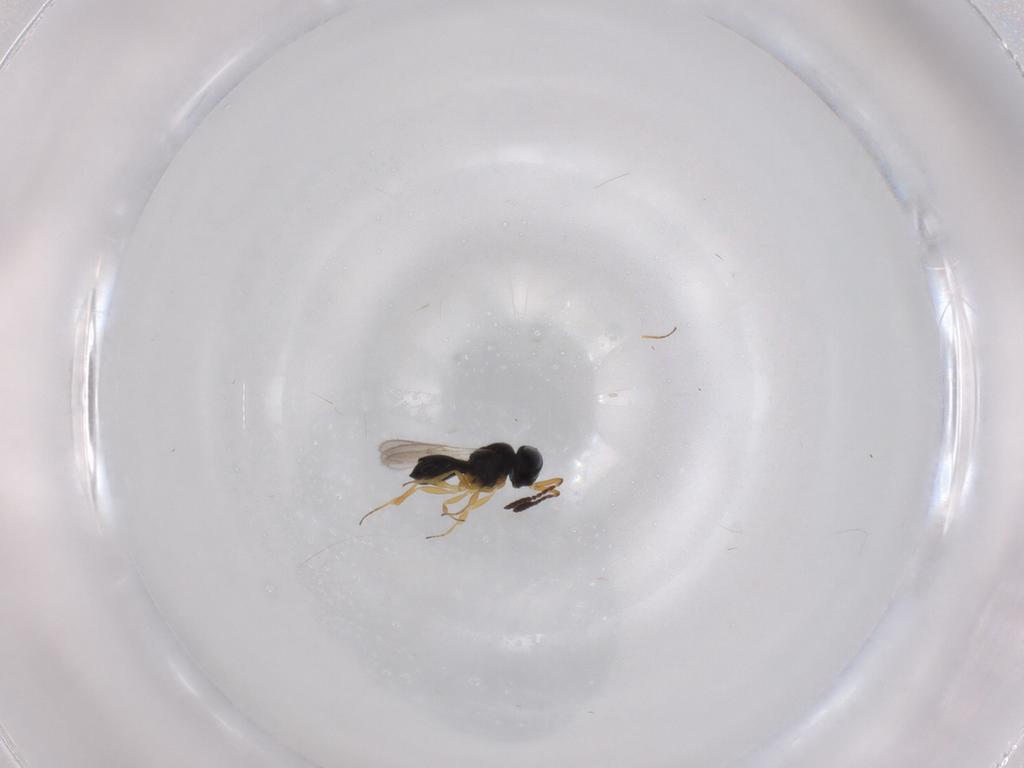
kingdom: Animalia
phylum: Arthropoda
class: Insecta
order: Hymenoptera
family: Scelionidae
